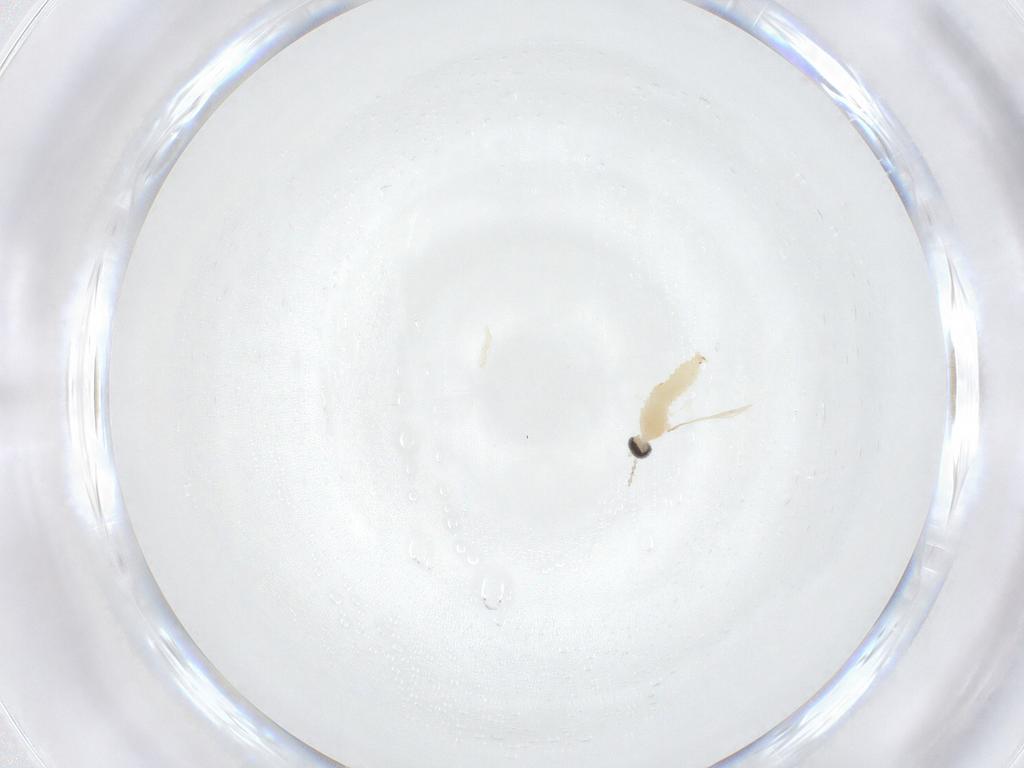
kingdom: Animalia
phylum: Arthropoda
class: Insecta
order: Diptera
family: Cecidomyiidae
